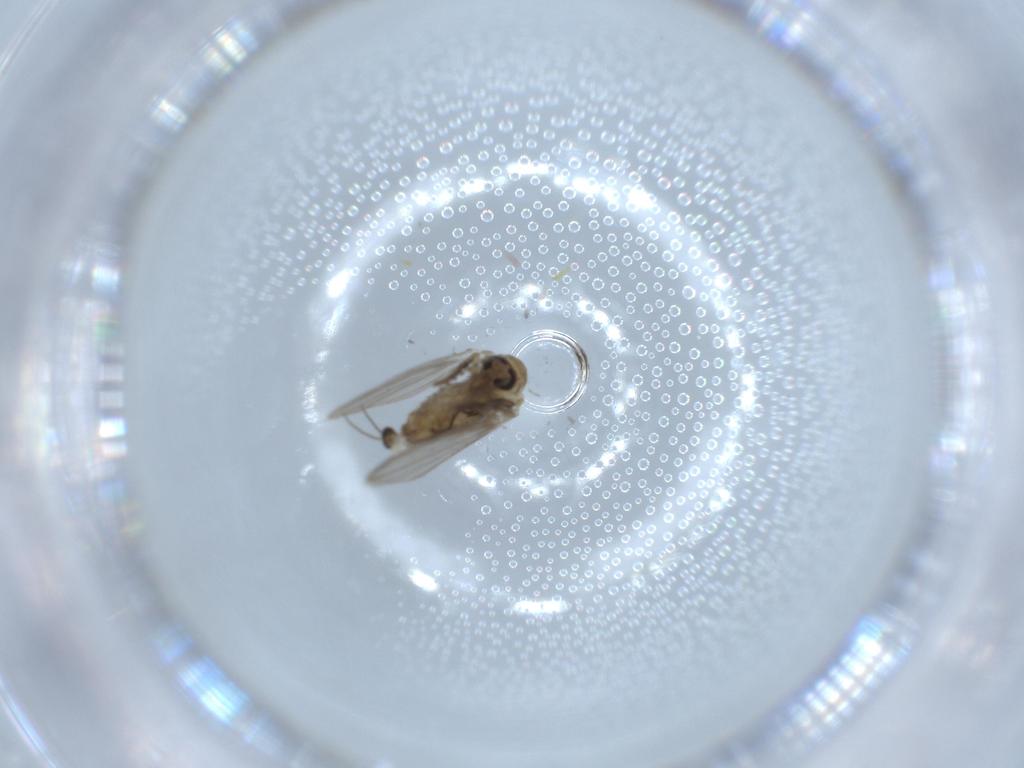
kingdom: Animalia
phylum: Arthropoda
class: Insecta
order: Diptera
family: Psychodidae
